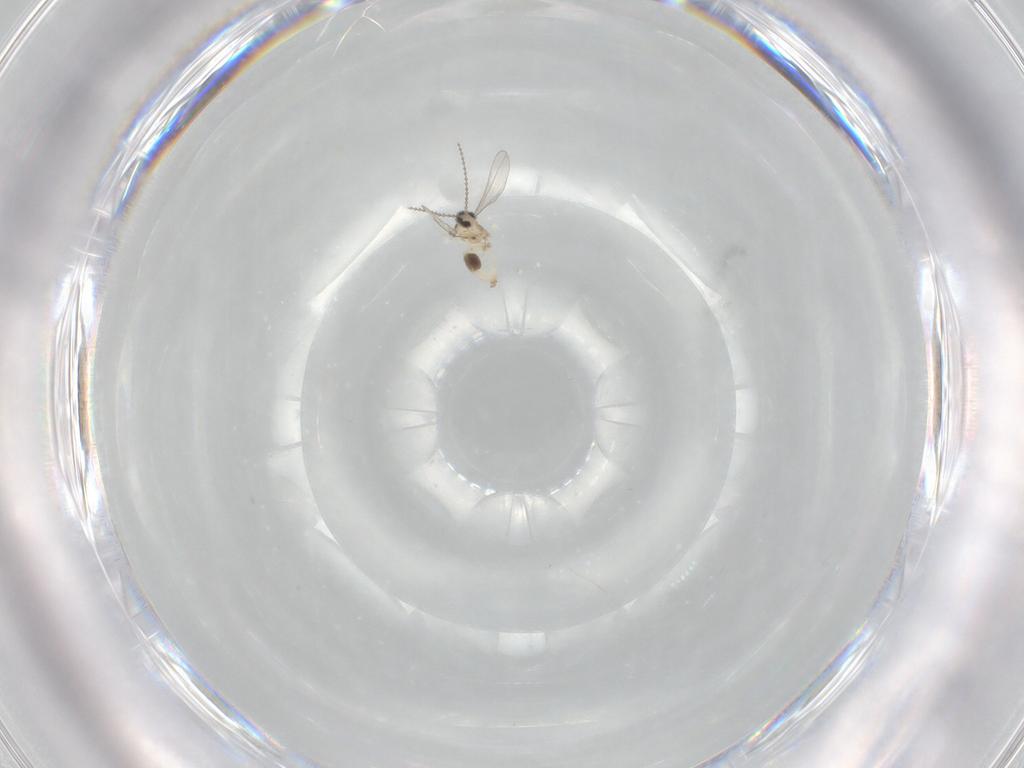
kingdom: Animalia
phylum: Arthropoda
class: Insecta
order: Diptera
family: Cecidomyiidae
